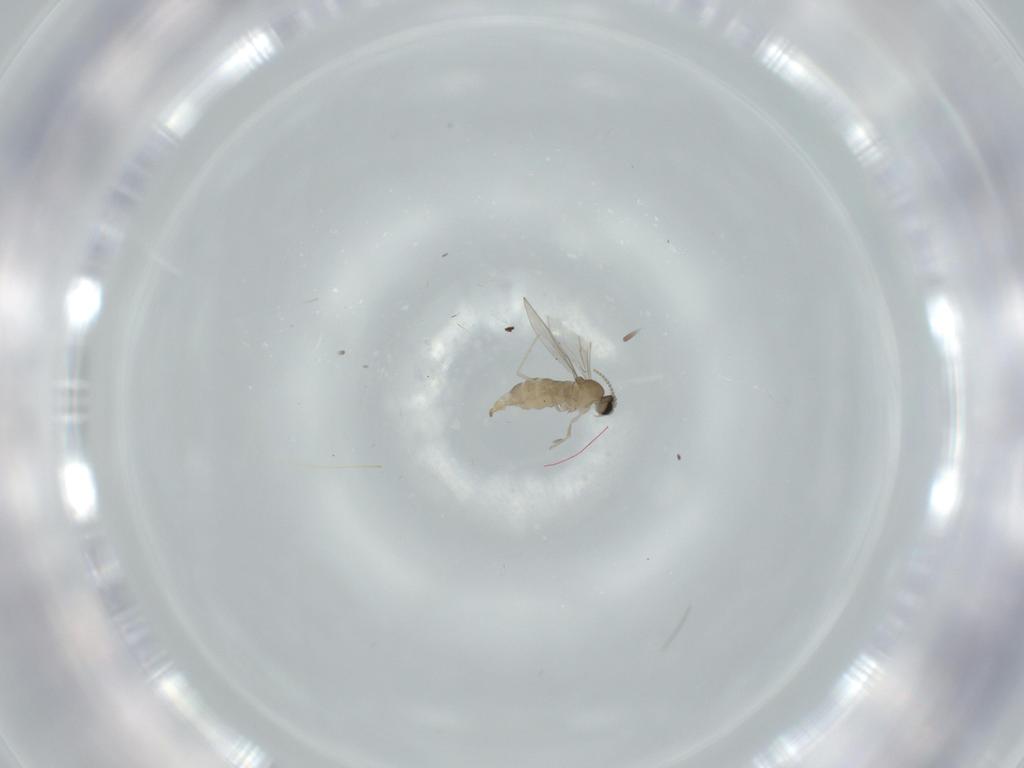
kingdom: Animalia
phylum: Arthropoda
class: Insecta
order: Diptera
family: Cecidomyiidae
